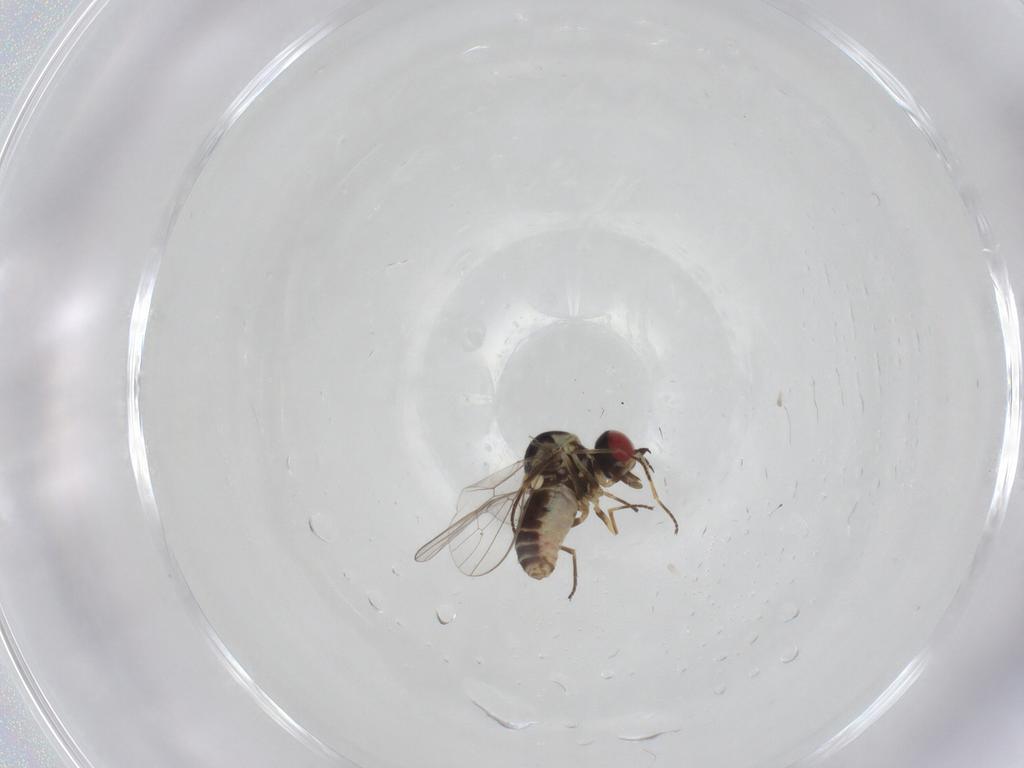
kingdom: Animalia
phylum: Arthropoda
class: Insecta
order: Diptera
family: Bombyliidae
